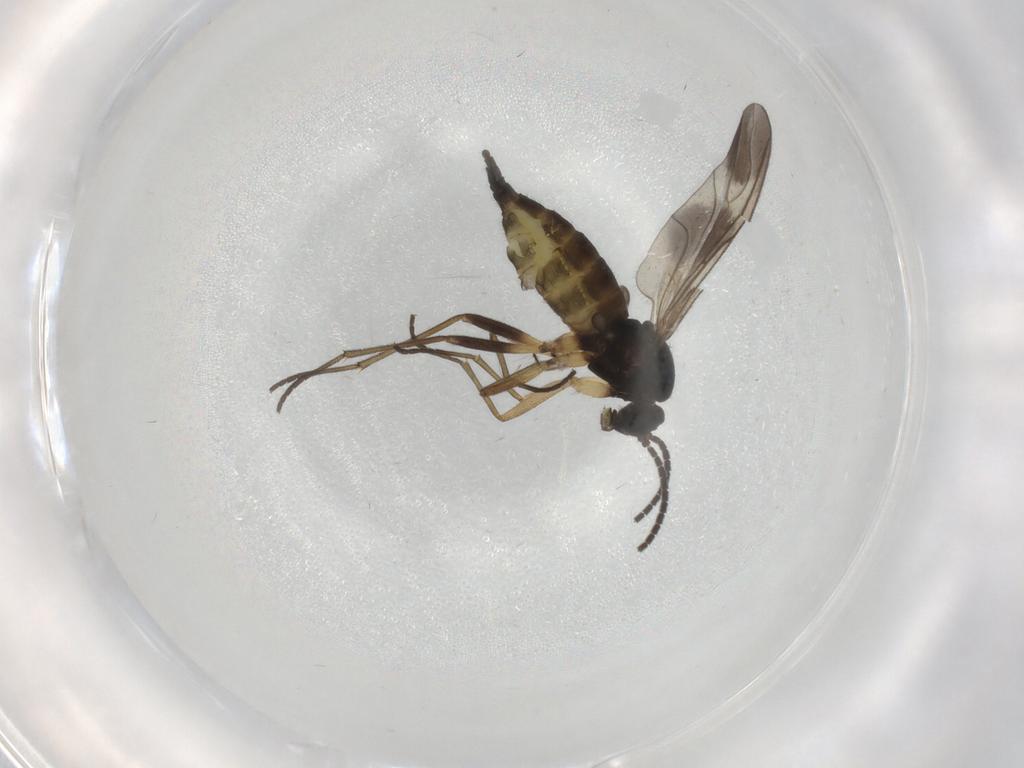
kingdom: Animalia
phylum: Arthropoda
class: Insecta
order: Diptera
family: Sciaridae
